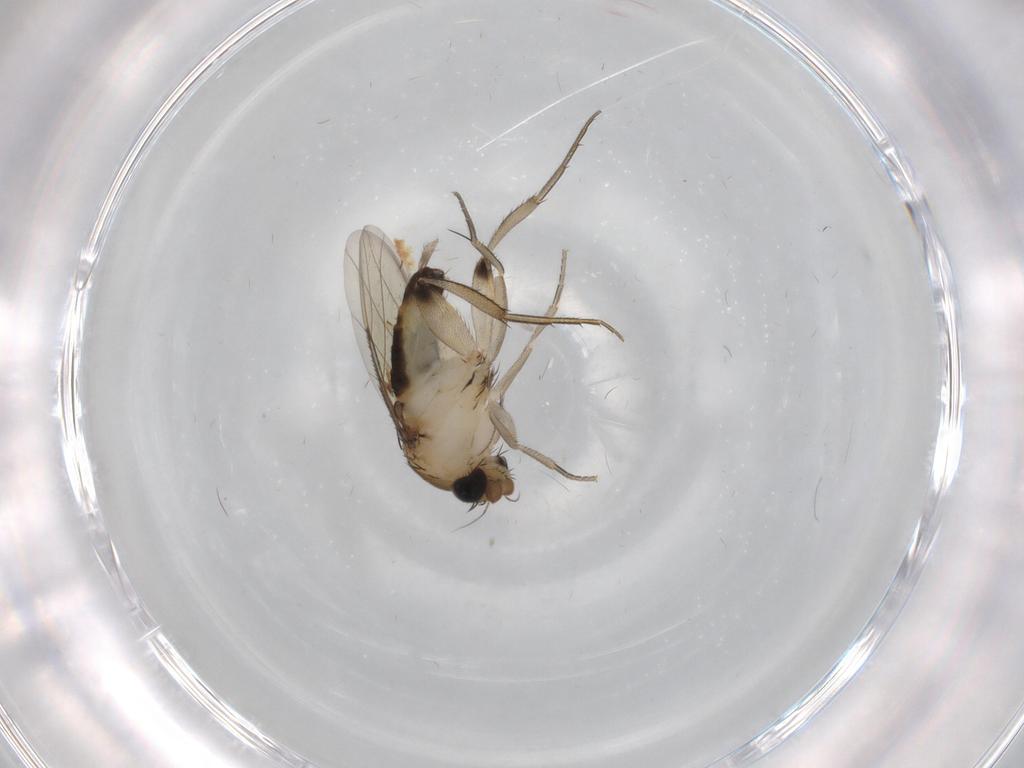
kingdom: Animalia
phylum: Arthropoda
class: Insecta
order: Diptera
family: Phoridae
